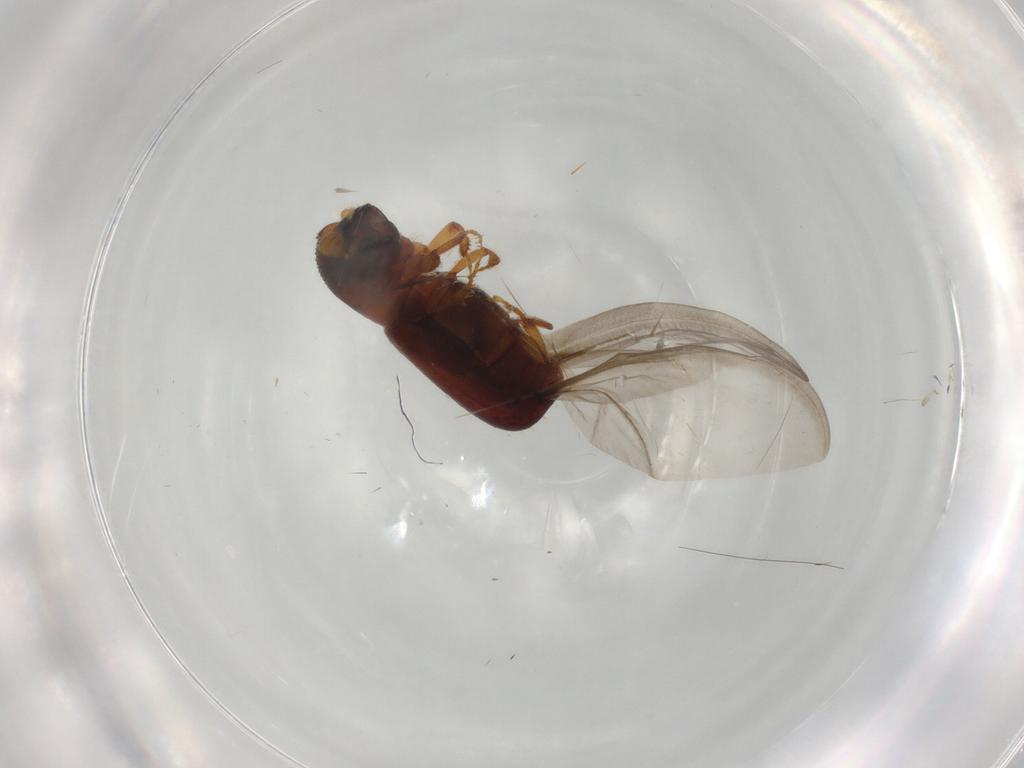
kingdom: Animalia
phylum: Arthropoda
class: Insecta
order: Coleoptera
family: Curculionidae
